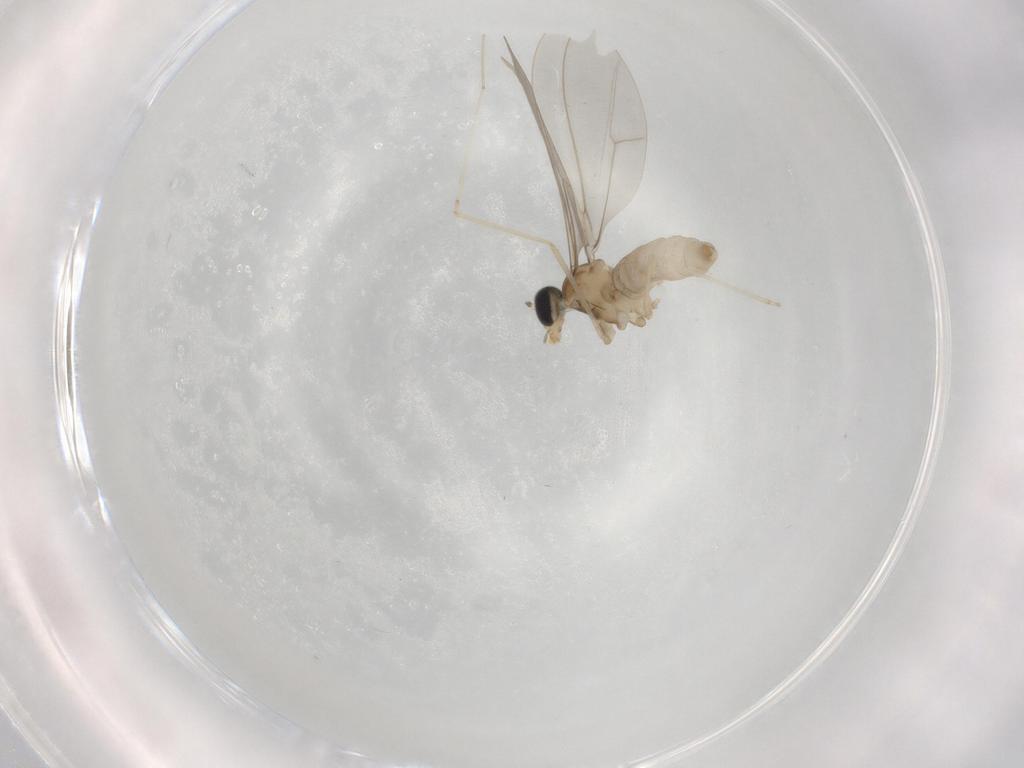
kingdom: Animalia
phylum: Arthropoda
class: Insecta
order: Diptera
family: Cecidomyiidae
